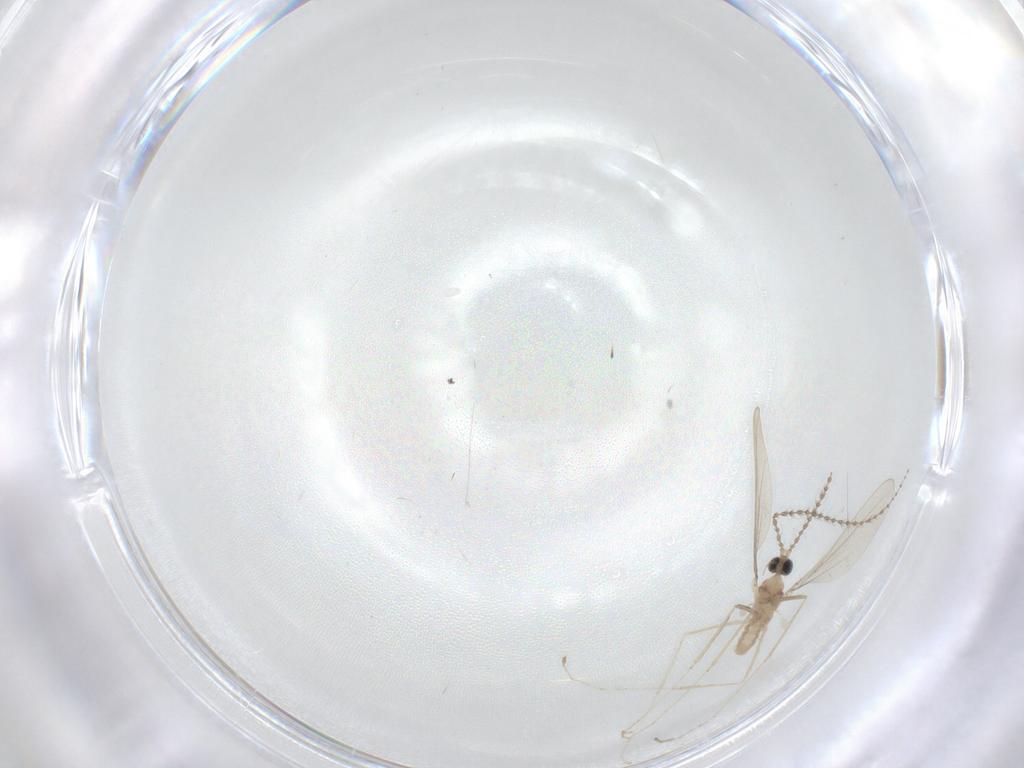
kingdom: Animalia
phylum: Arthropoda
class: Insecta
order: Diptera
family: Cecidomyiidae
